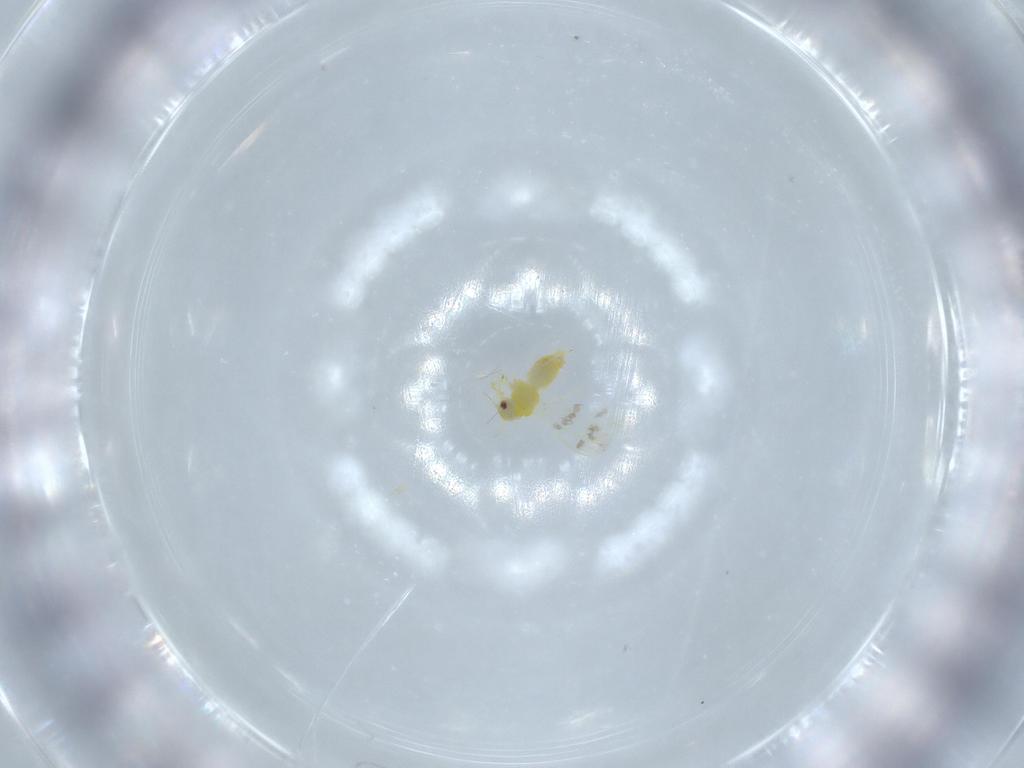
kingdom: Animalia
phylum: Arthropoda
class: Insecta
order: Hemiptera
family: Aleyrodidae
